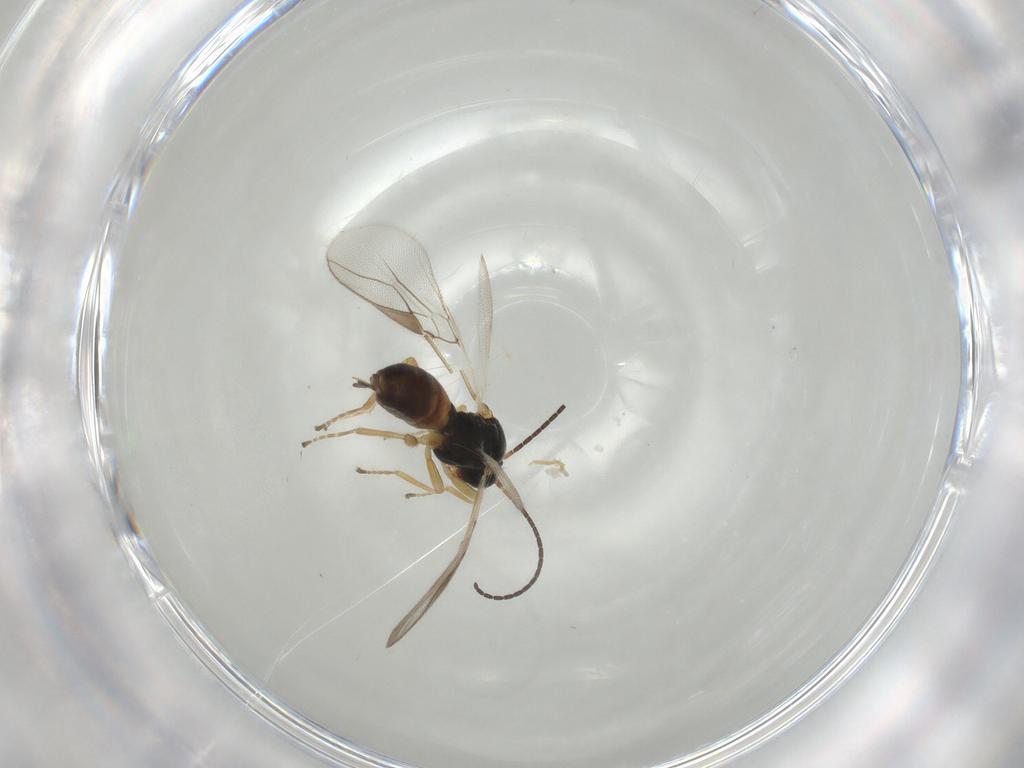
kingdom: Animalia
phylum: Arthropoda
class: Insecta
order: Hymenoptera
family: Braconidae
